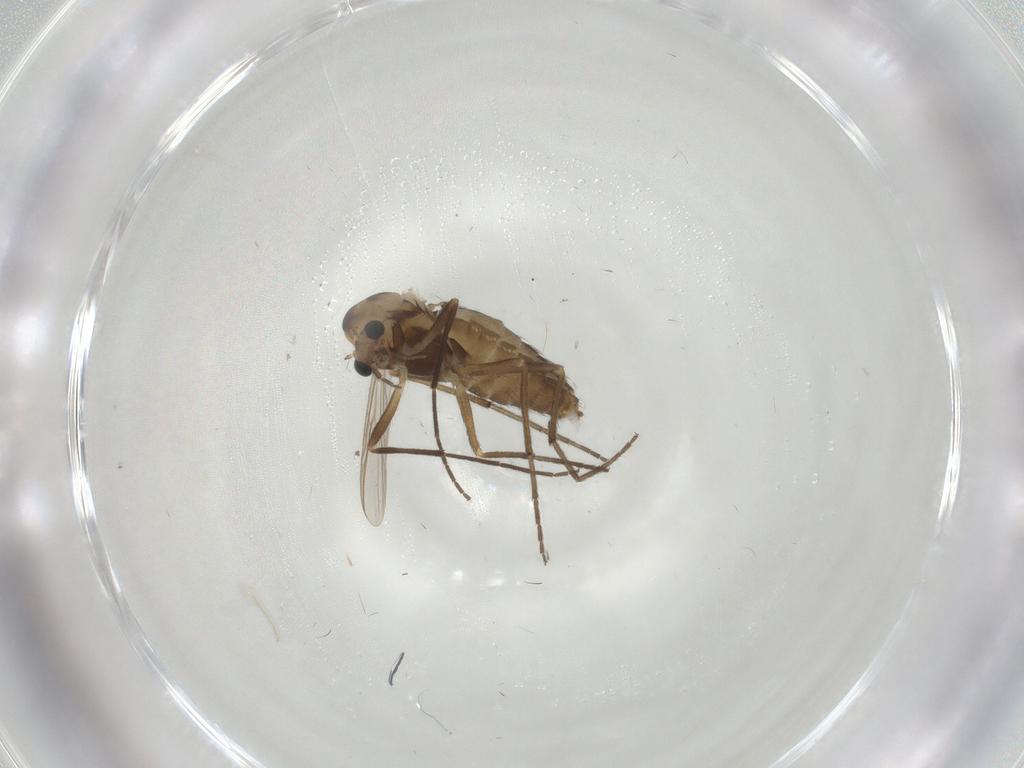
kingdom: Animalia
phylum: Arthropoda
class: Insecta
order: Diptera
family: Chironomidae
